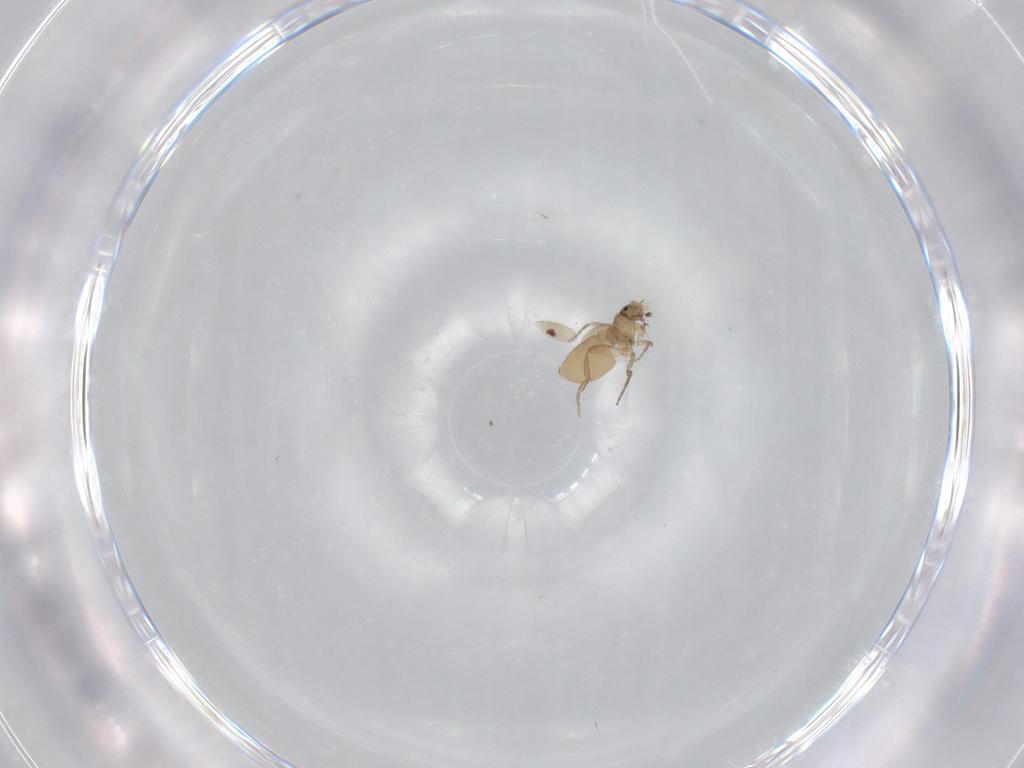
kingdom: Animalia
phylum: Arthropoda
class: Insecta
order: Diptera
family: Phoridae
